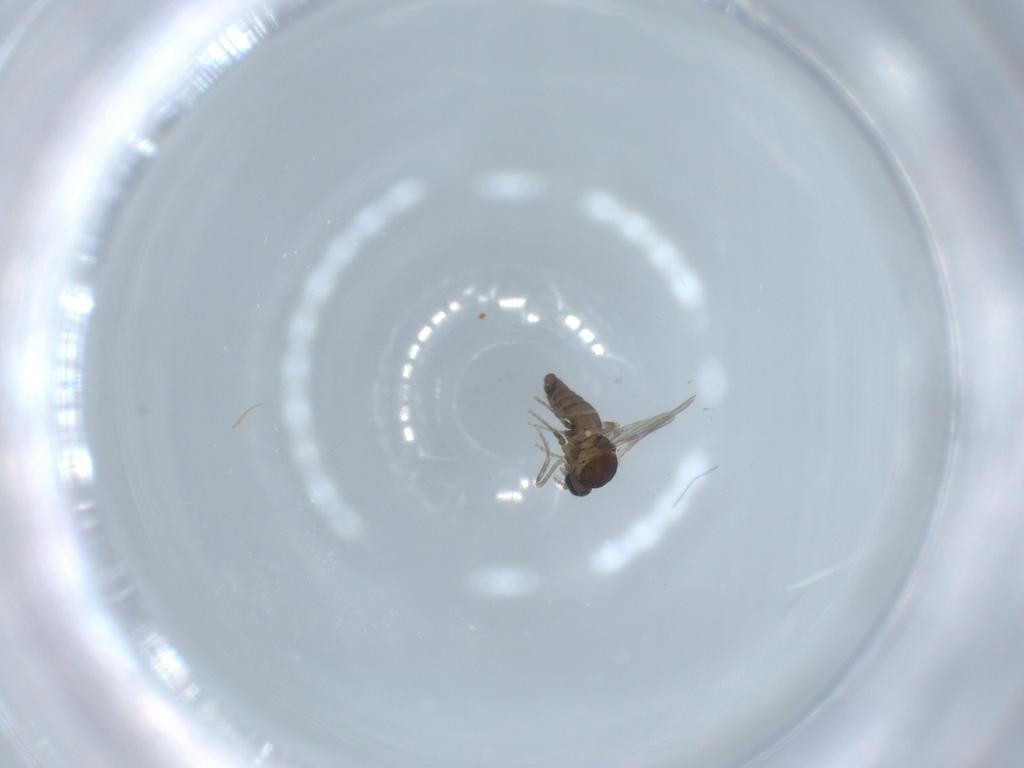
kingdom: Animalia
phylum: Arthropoda
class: Insecta
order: Diptera
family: Ceratopogonidae
